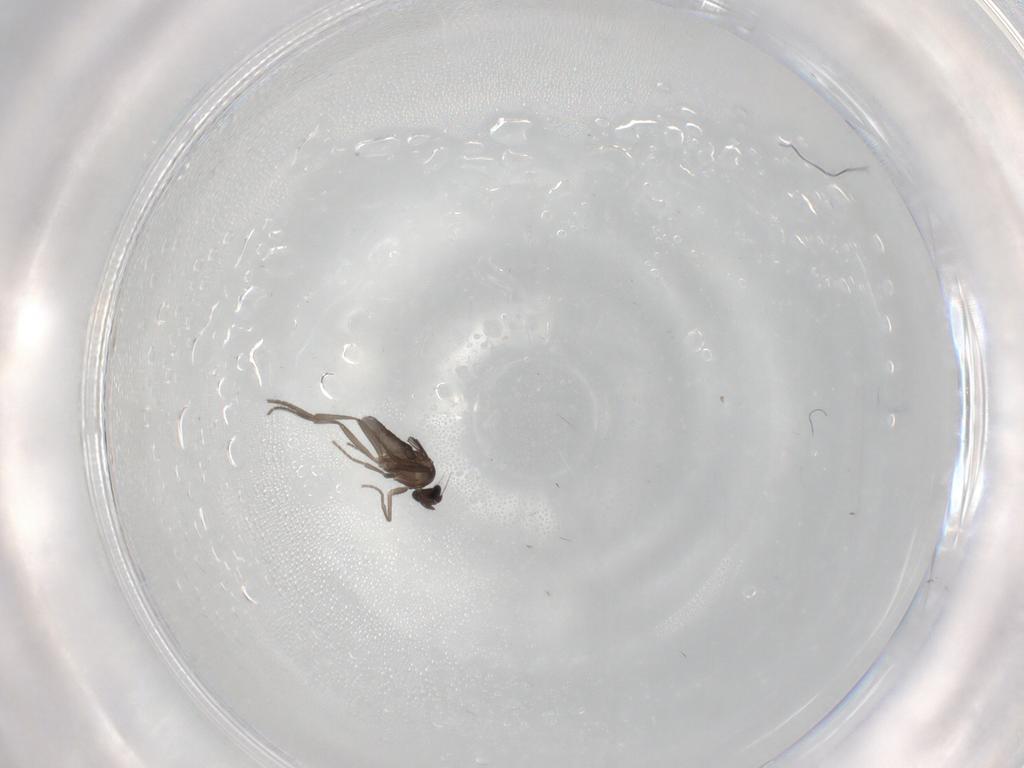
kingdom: Animalia
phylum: Arthropoda
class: Insecta
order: Diptera
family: Phoridae
